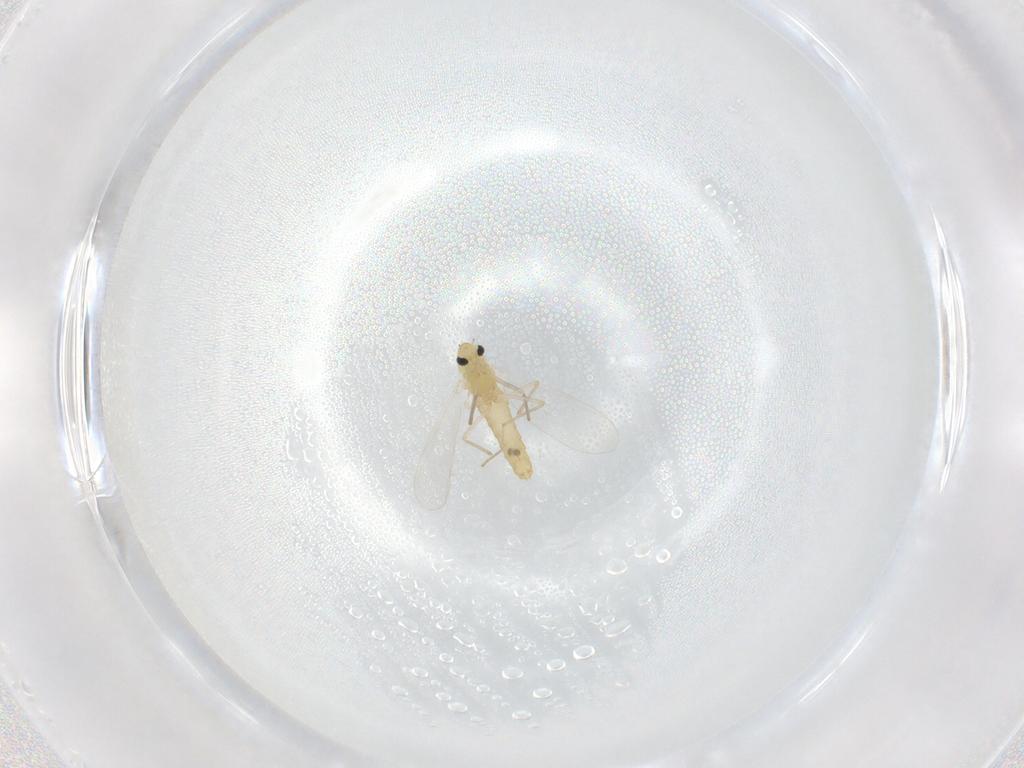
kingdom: Animalia
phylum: Arthropoda
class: Insecta
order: Diptera
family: Chironomidae
